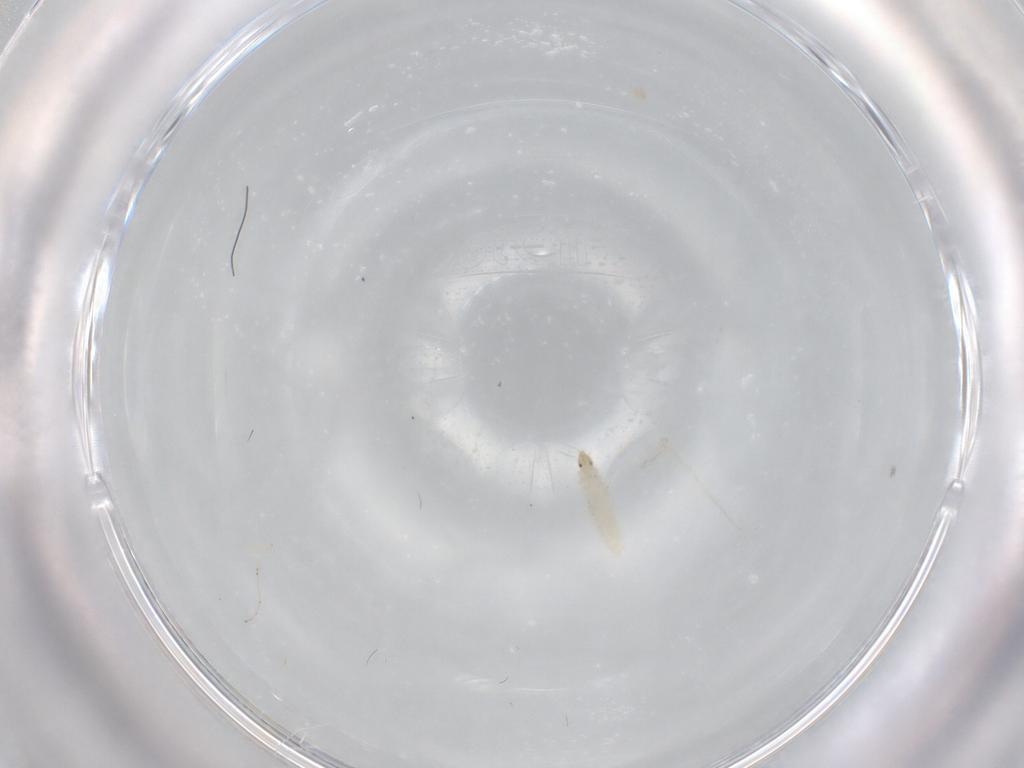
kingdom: Animalia
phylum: Arthropoda
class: Insecta
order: Diptera
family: Cecidomyiidae
